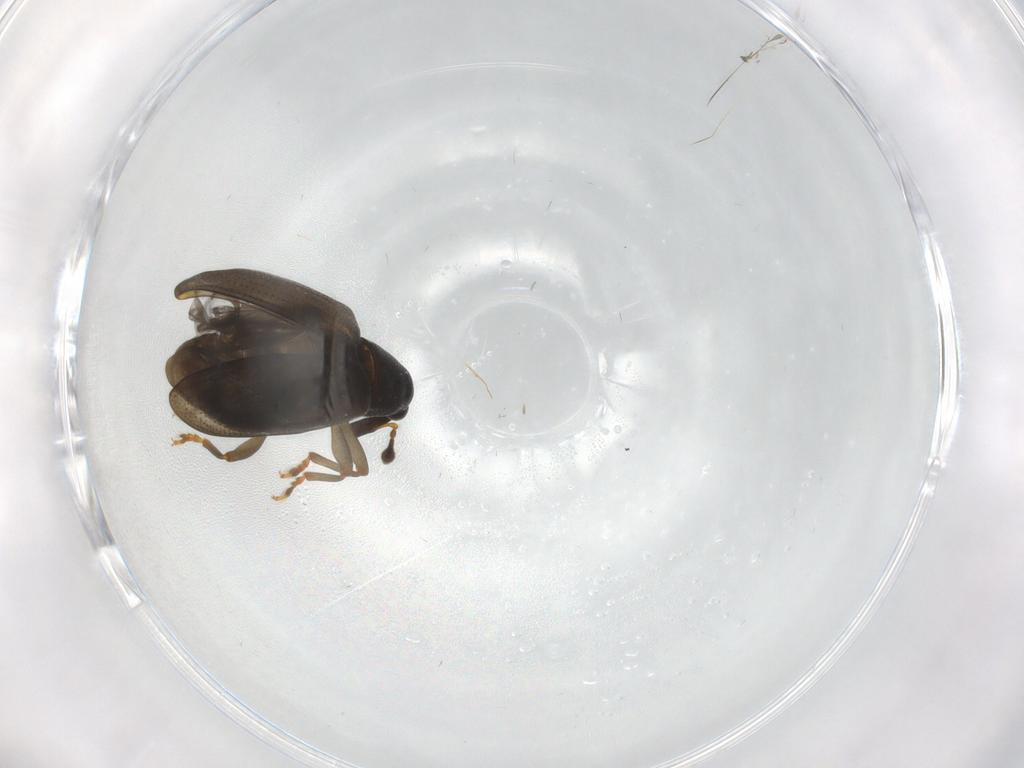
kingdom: Animalia
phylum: Arthropoda
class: Insecta
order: Coleoptera
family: Curculionidae
